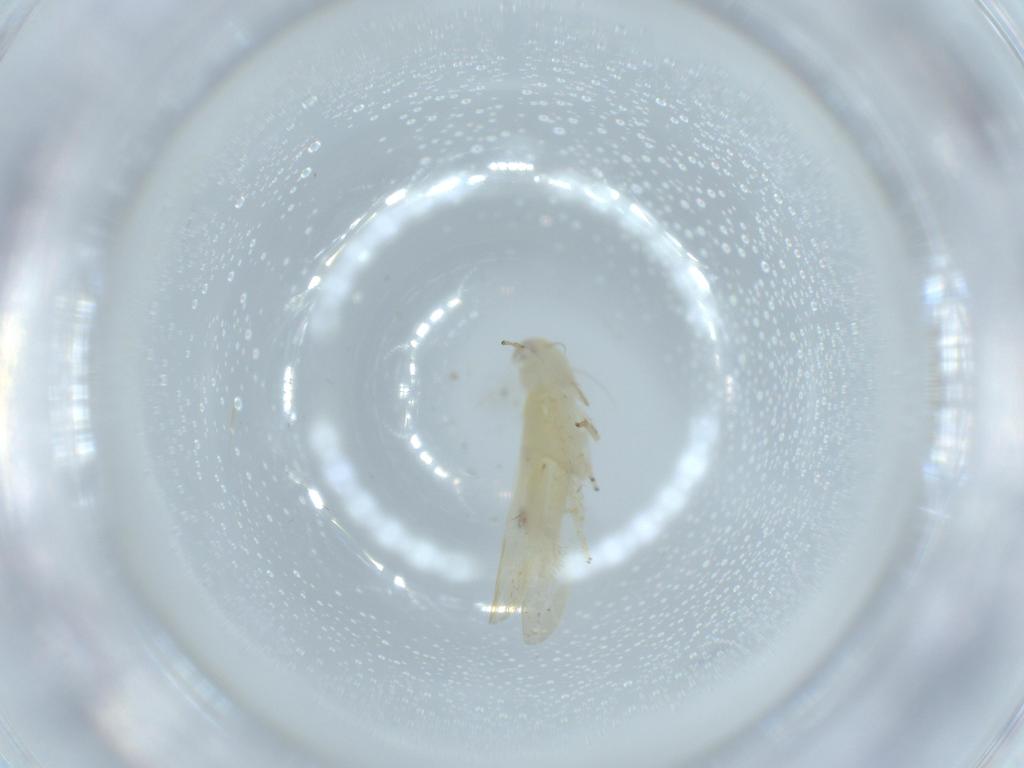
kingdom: Animalia
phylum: Arthropoda
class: Insecta
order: Hemiptera
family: Cicadellidae
